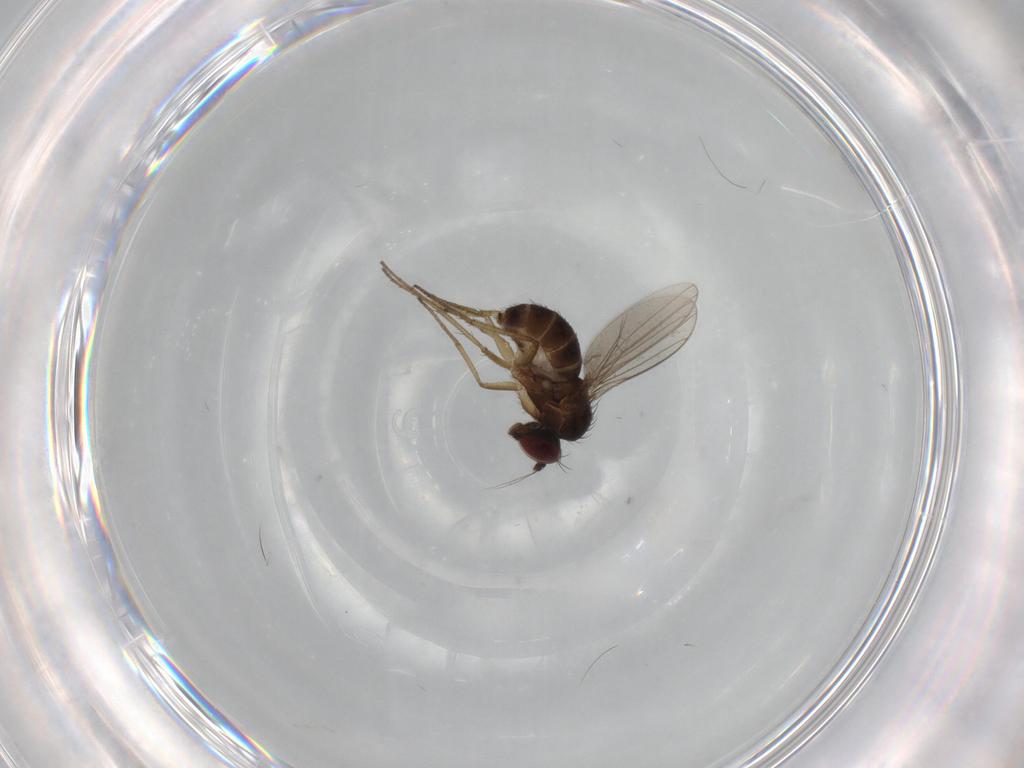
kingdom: Animalia
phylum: Arthropoda
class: Insecta
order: Diptera
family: Dolichopodidae
